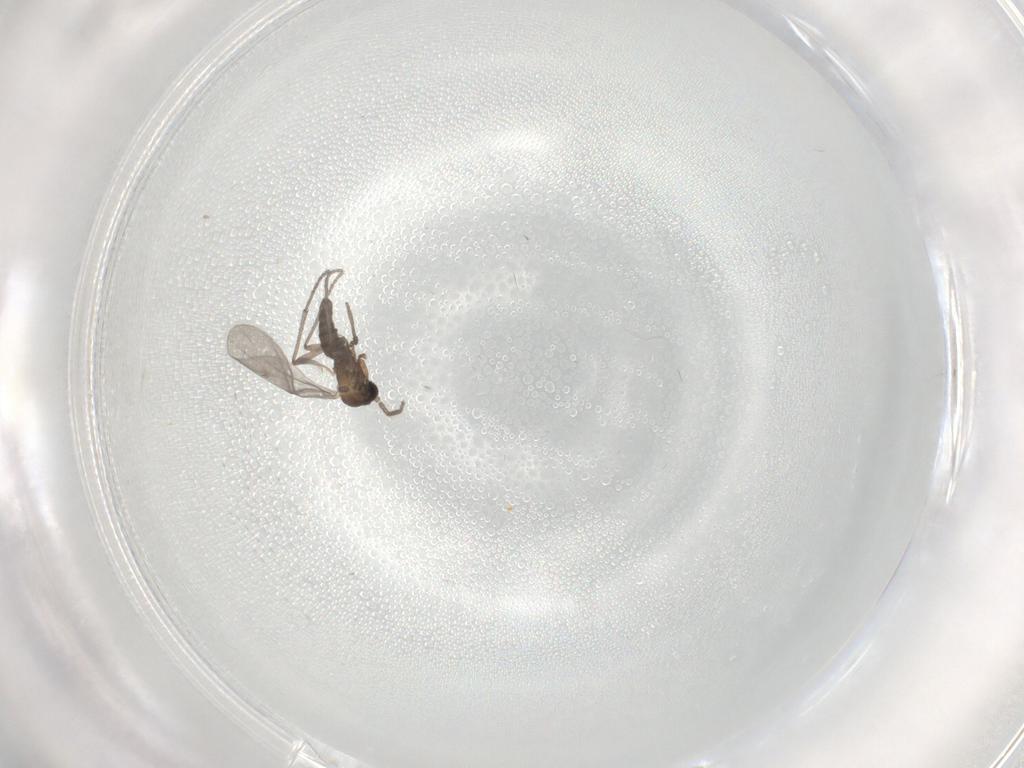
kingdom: Animalia
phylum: Arthropoda
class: Insecta
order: Diptera
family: Sciaridae
